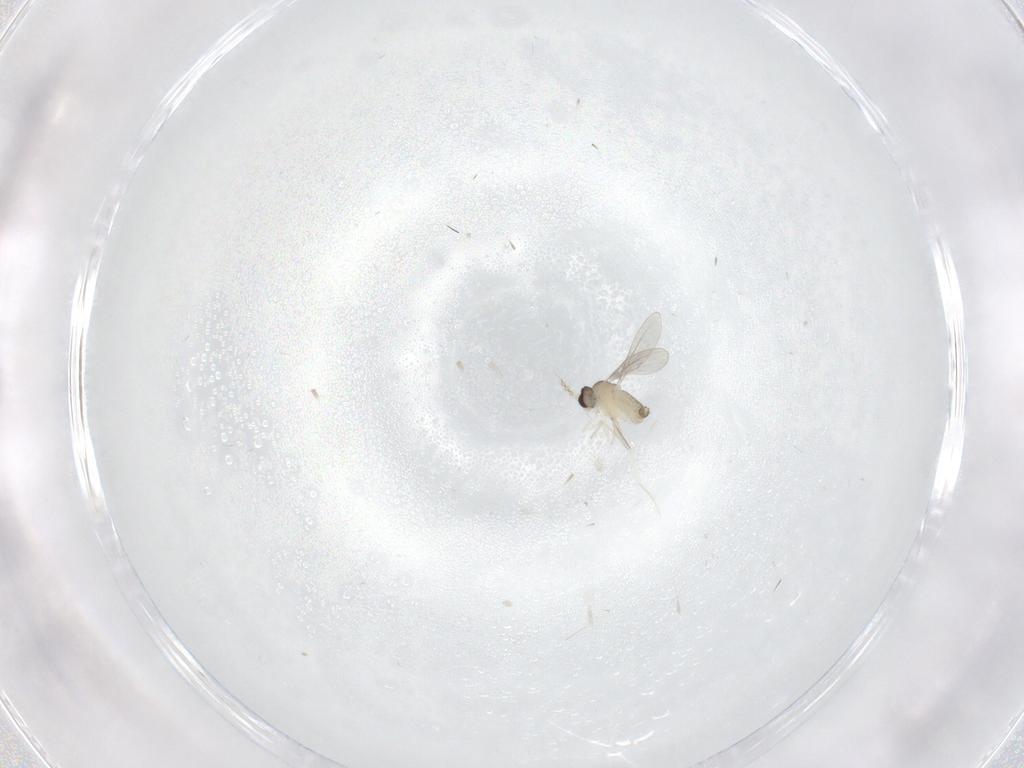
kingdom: Animalia
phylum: Arthropoda
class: Insecta
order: Diptera
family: Cecidomyiidae
